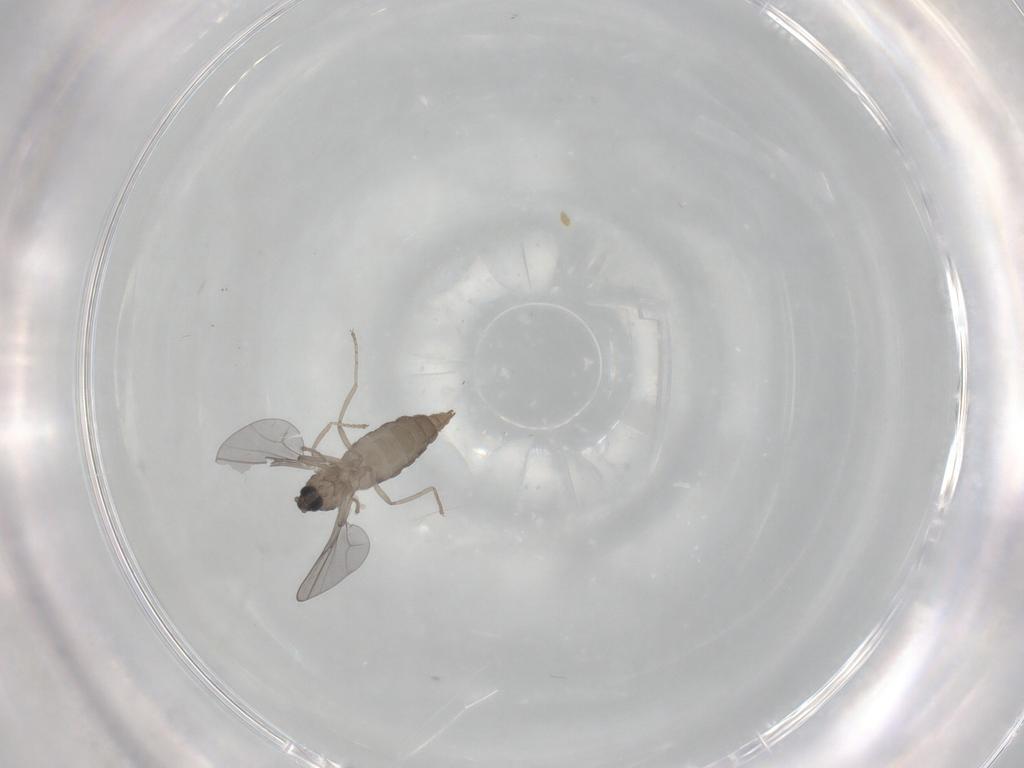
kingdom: Animalia
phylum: Arthropoda
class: Insecta
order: Diptera
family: Cecidomyiidae
